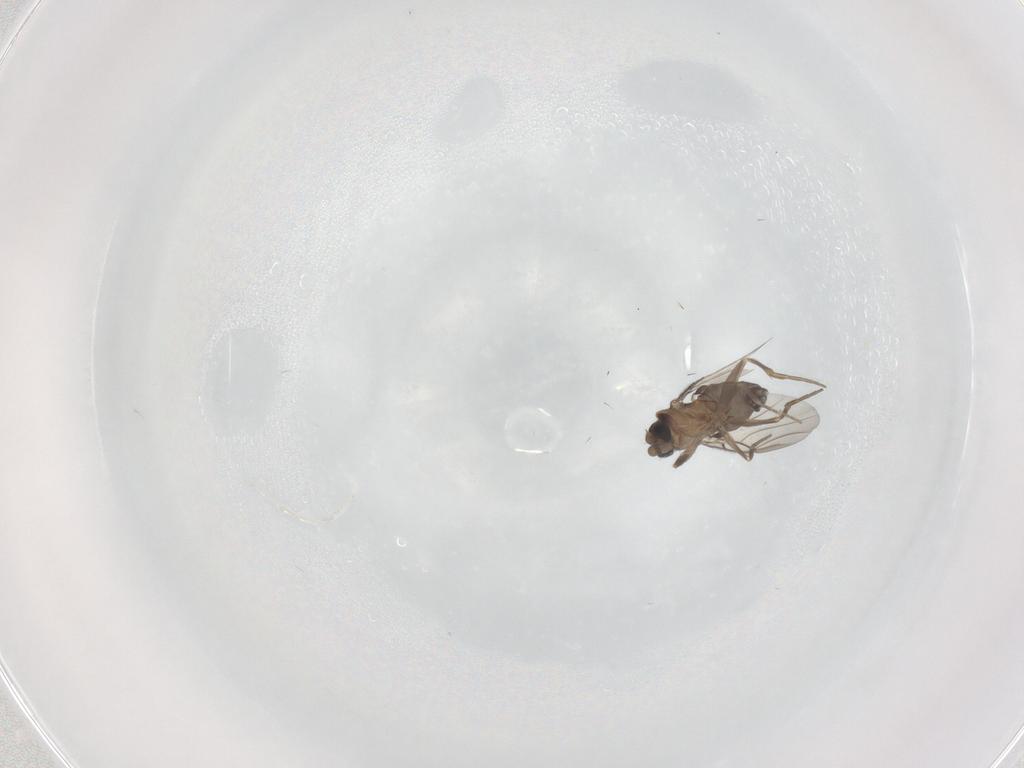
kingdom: Animalia
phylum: Arthropoda
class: Insecta
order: Diptera
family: Phoridae
